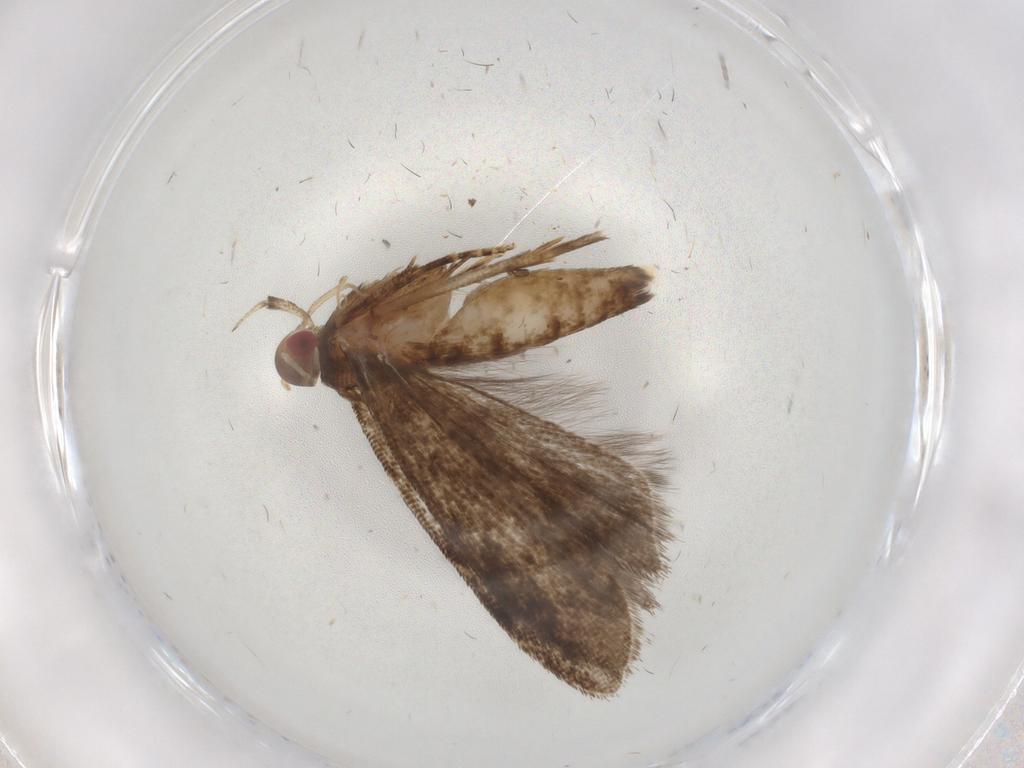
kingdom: Animalia
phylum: Arthropoda
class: Insecta
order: Lepidoptera
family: Gelechiidae
